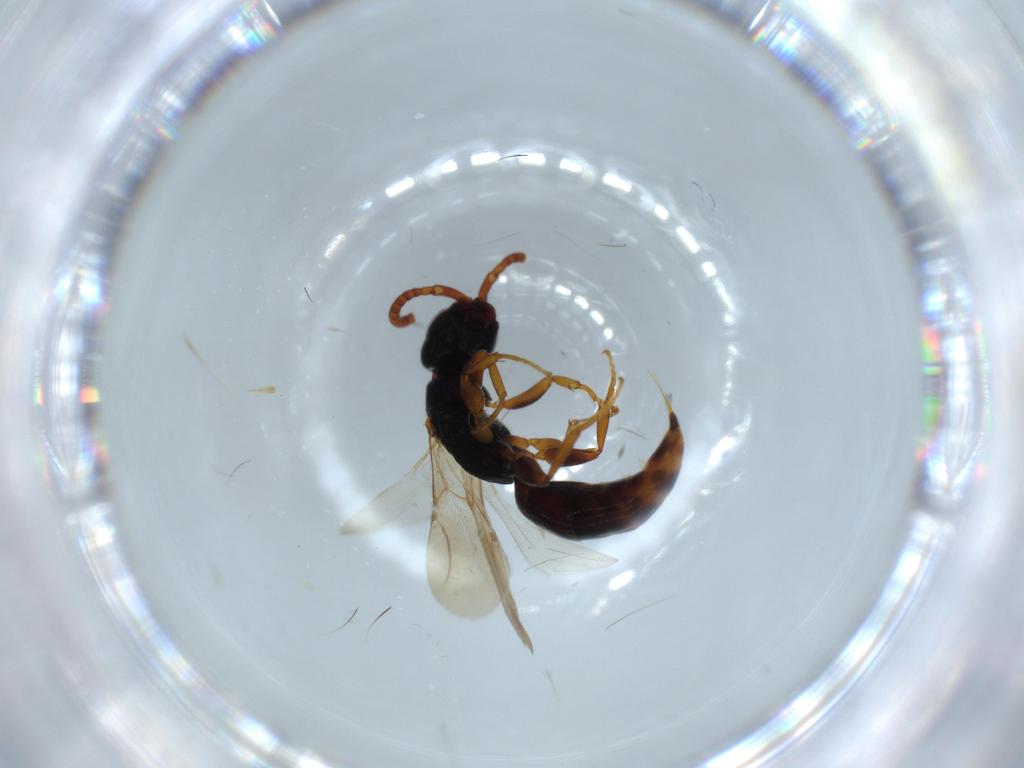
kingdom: Animalia
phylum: Arthropoda
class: Insecta
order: Hymenoptera
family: Bethylidae
